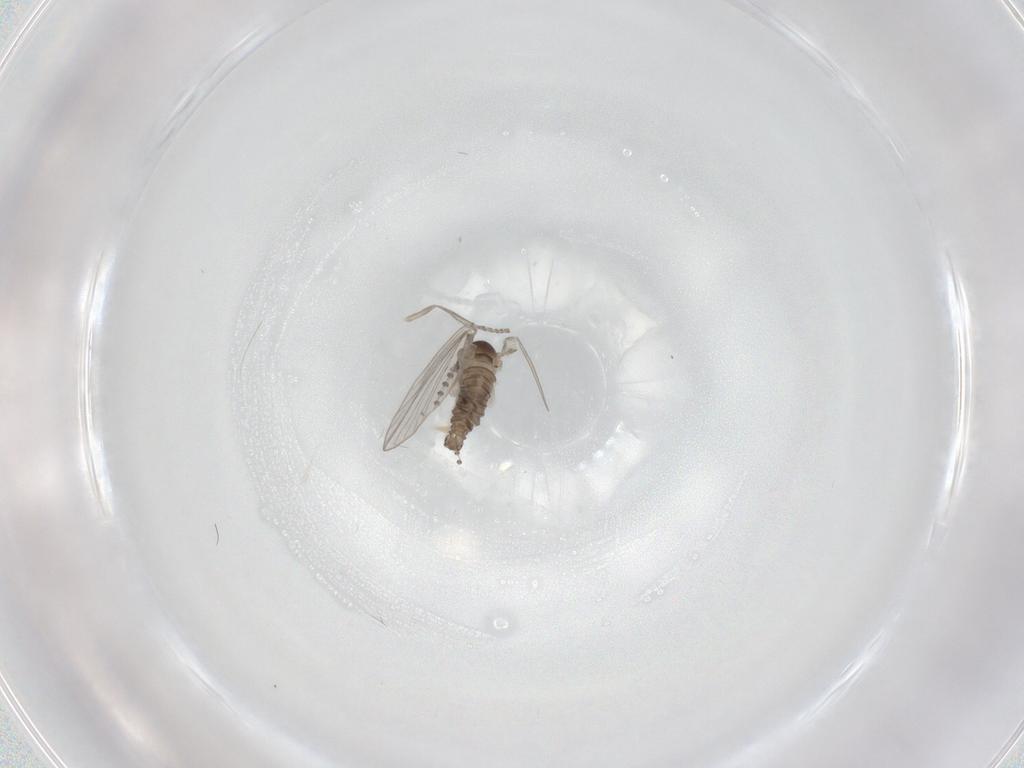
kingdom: Animalia
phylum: Arthropoda
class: Insecta
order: Diptera
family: Psychodidae
